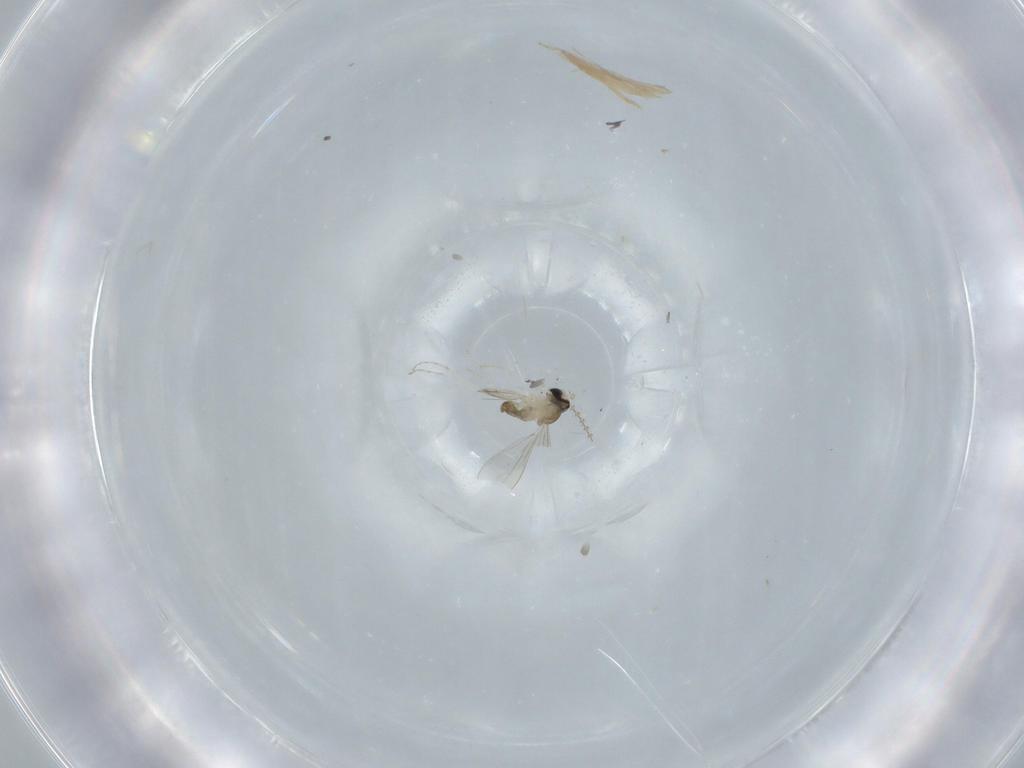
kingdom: Animalia
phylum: Arthropoda
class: Insecta
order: Diptera
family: Cecidomyiidae
